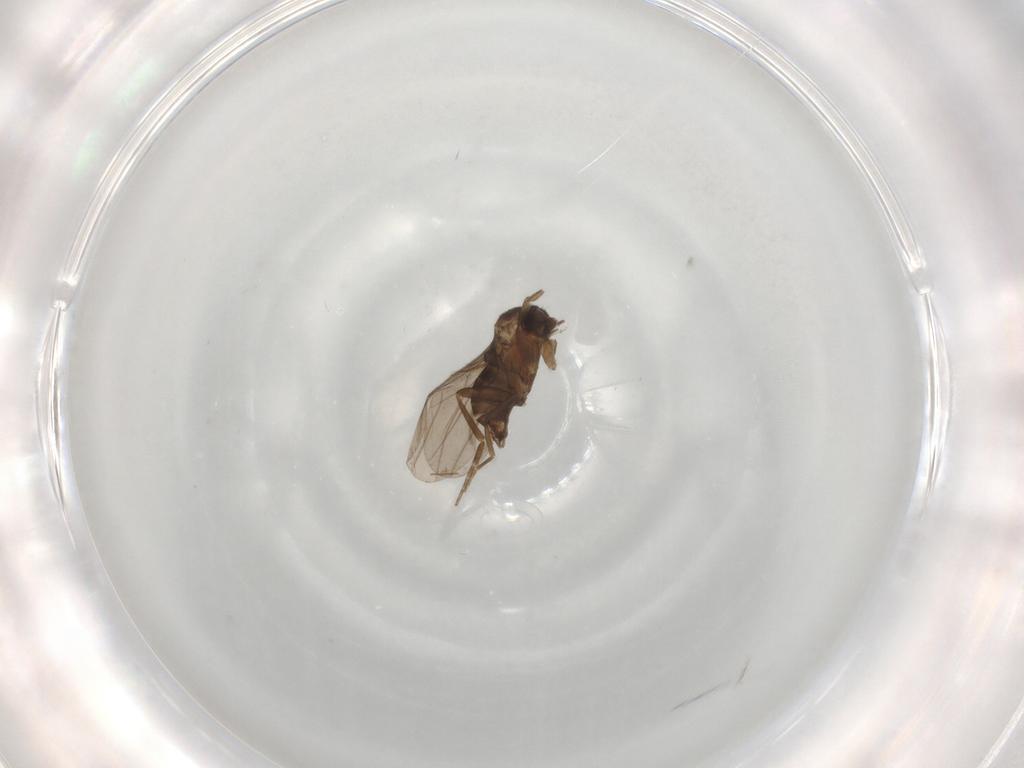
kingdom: Animalia
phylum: Arthropoda
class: Insecta
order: Diptera
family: Sciaridae
